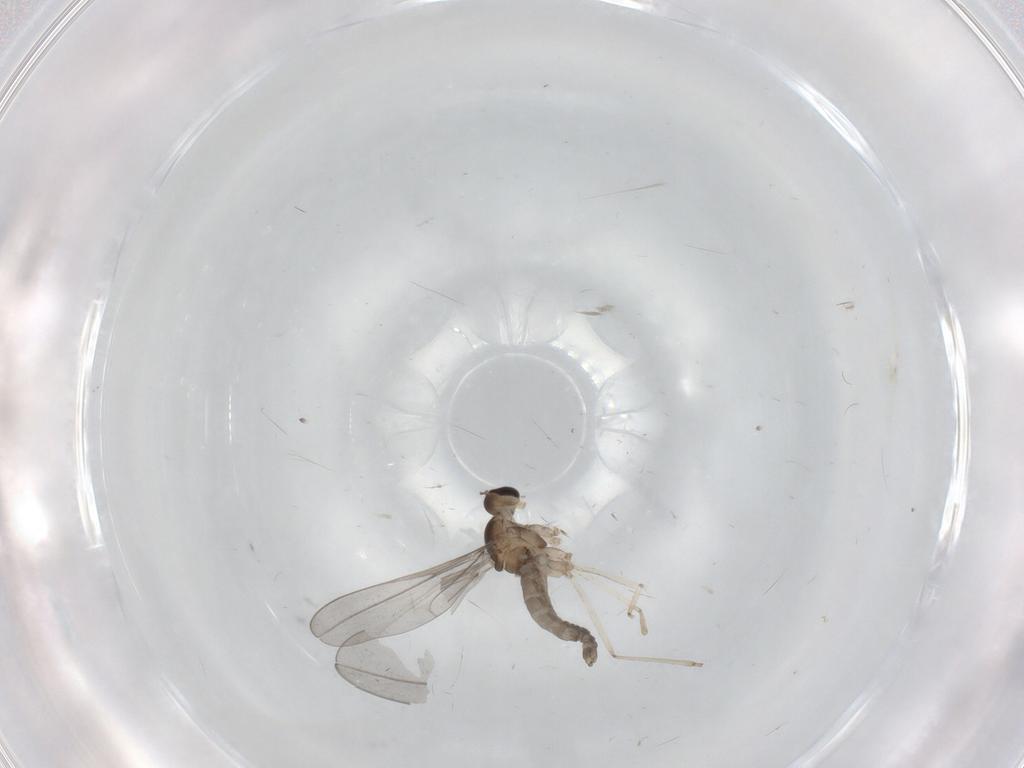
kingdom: Animalia
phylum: Arthropoda
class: Insecta
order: Diptera
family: Cecidomyiidae
